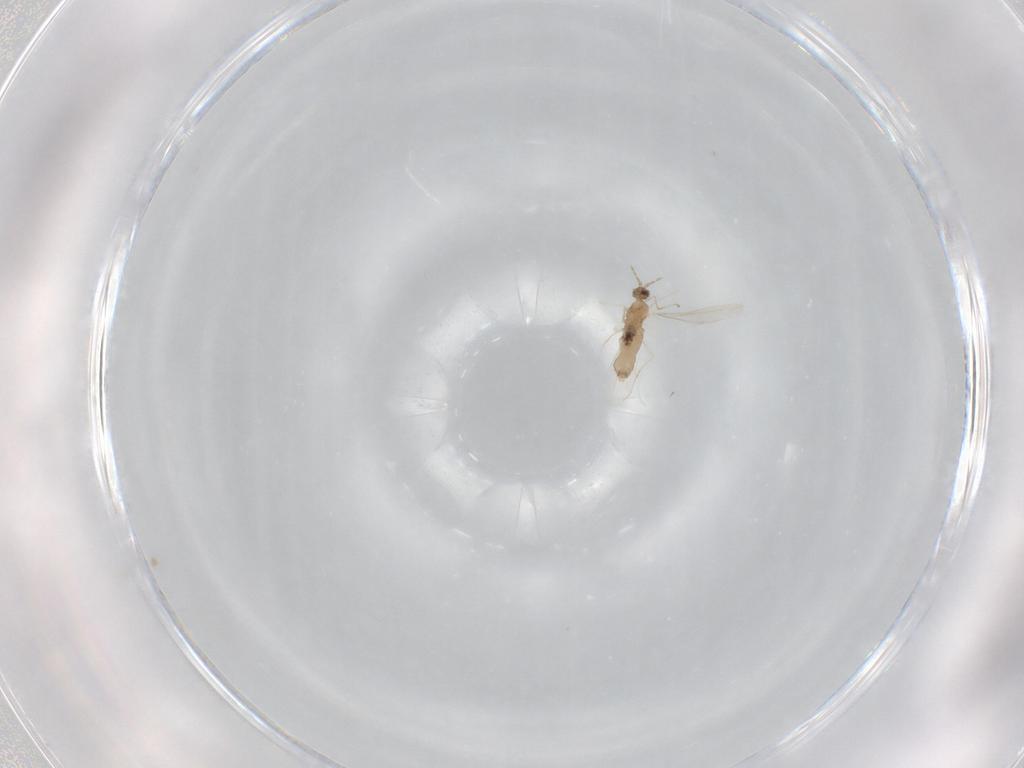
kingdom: Animalia
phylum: Arthropoda
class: Insecta
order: Diptera
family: Cecidomyiidae
